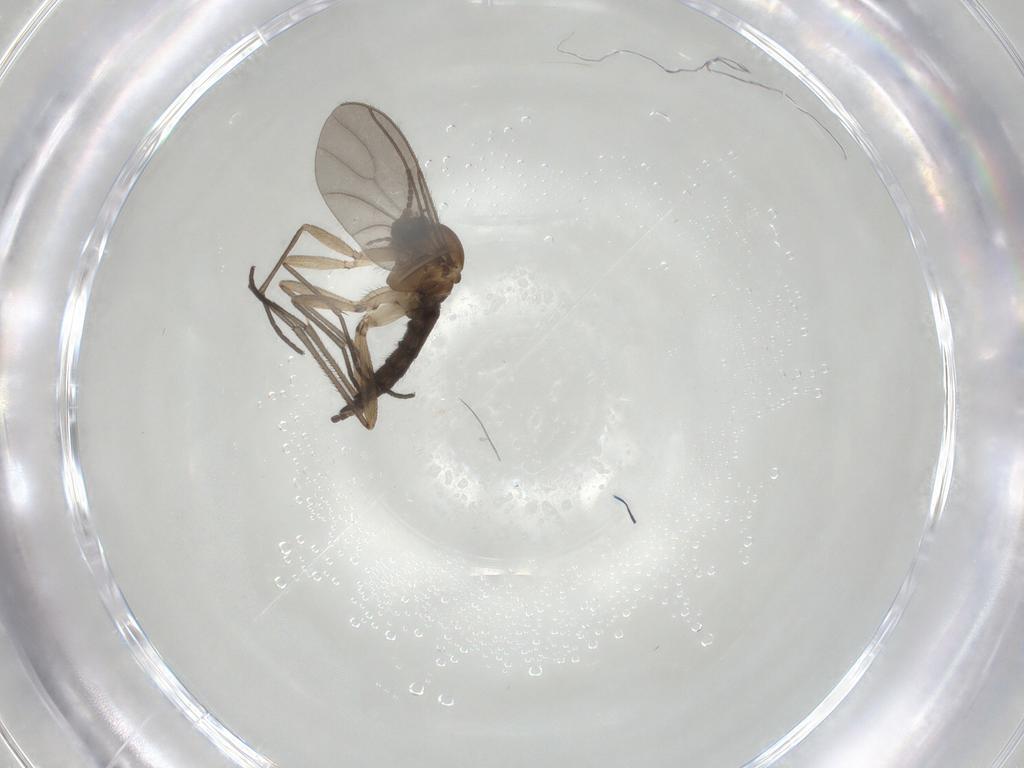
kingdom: Animalia
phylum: Arthropoda
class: Insecta
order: Diptera
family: Sciaridae
